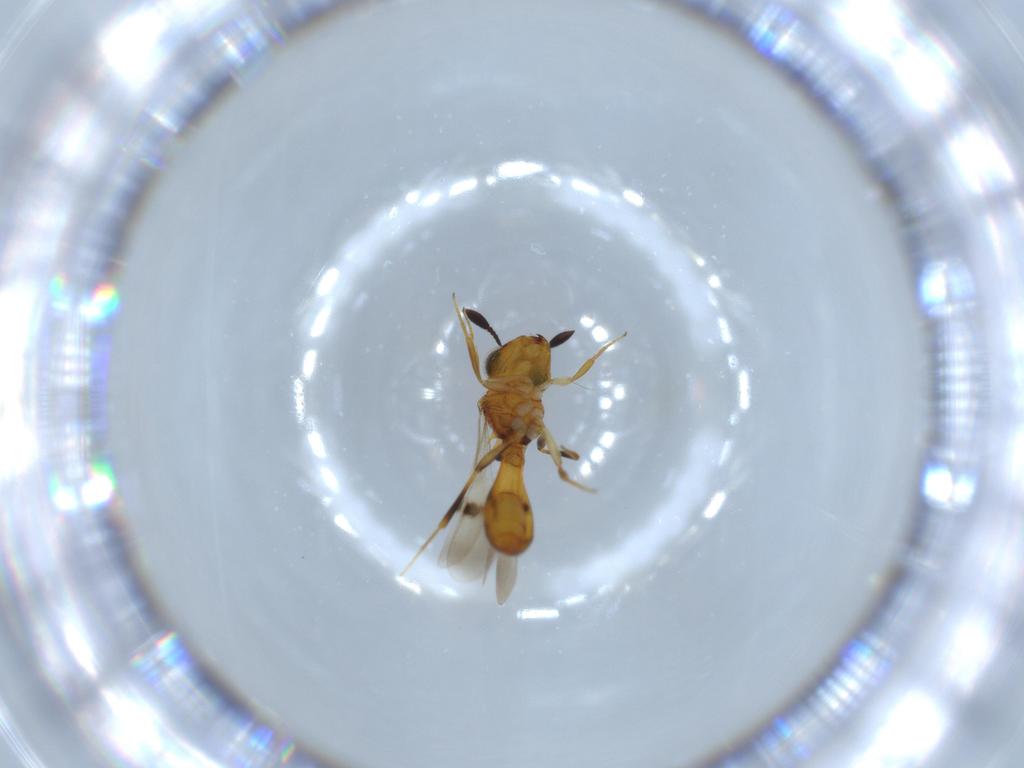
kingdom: Animalia
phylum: Arthropoda
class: Insecta
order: Hymenoptera
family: Scelionidae
